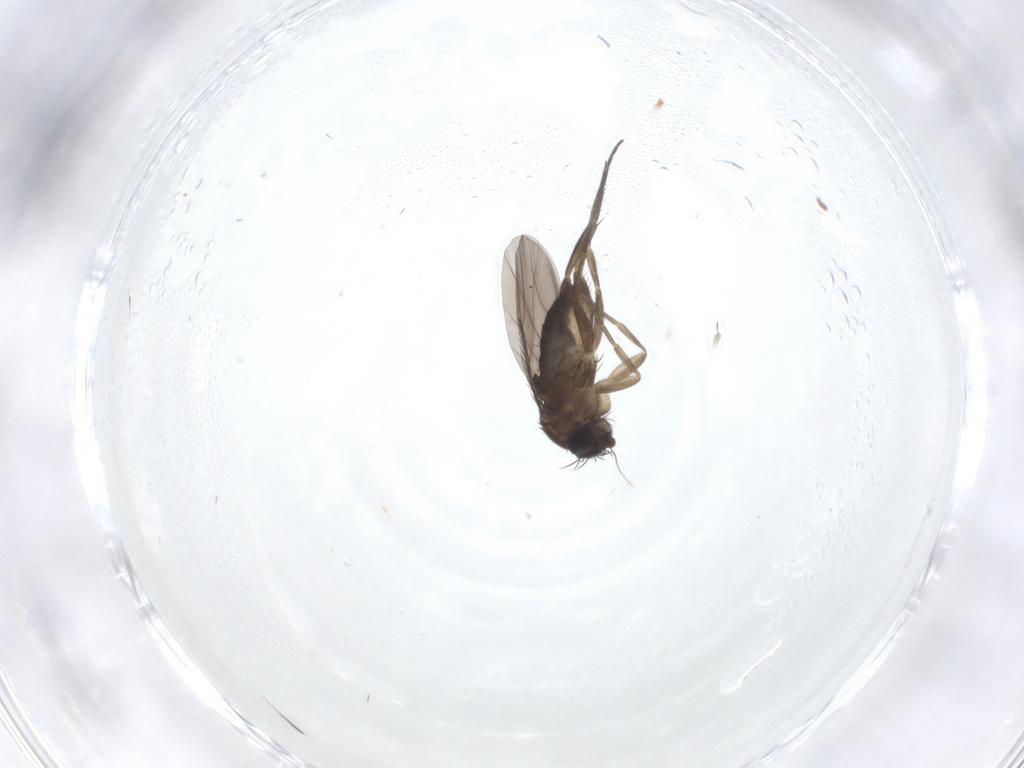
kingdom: Animalia
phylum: Arthropoda
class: Insecta
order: Diptera
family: Phoridae
